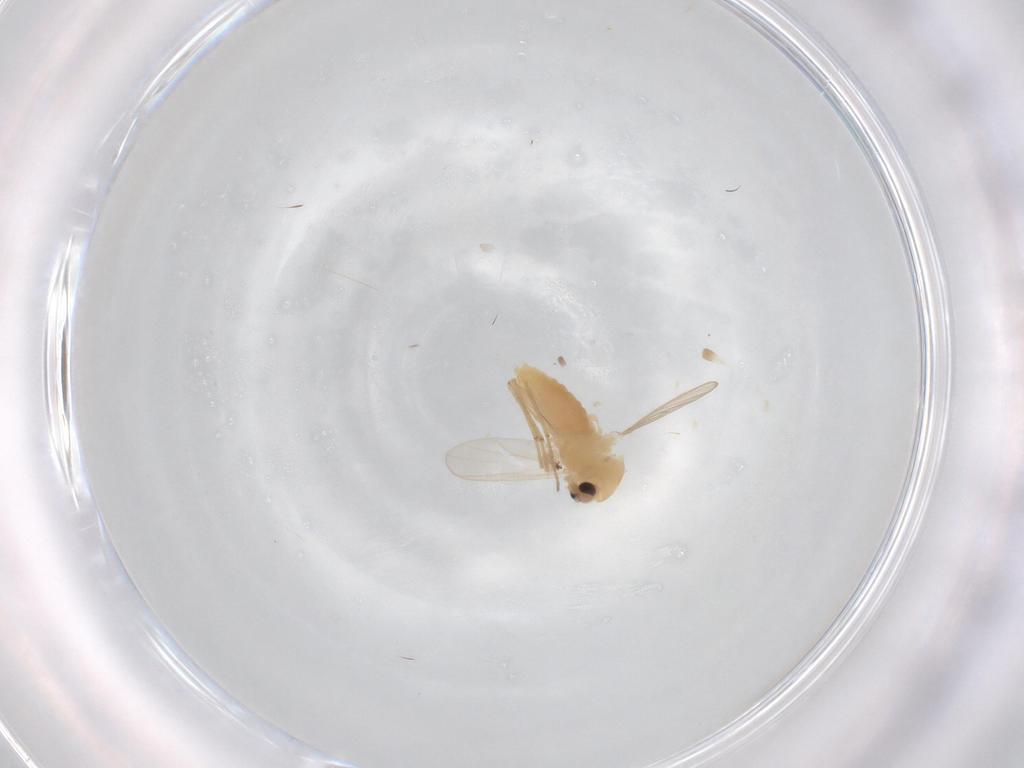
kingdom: Animalia
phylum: Arthropoda
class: Insecta
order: Diptera
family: Chironomidae
